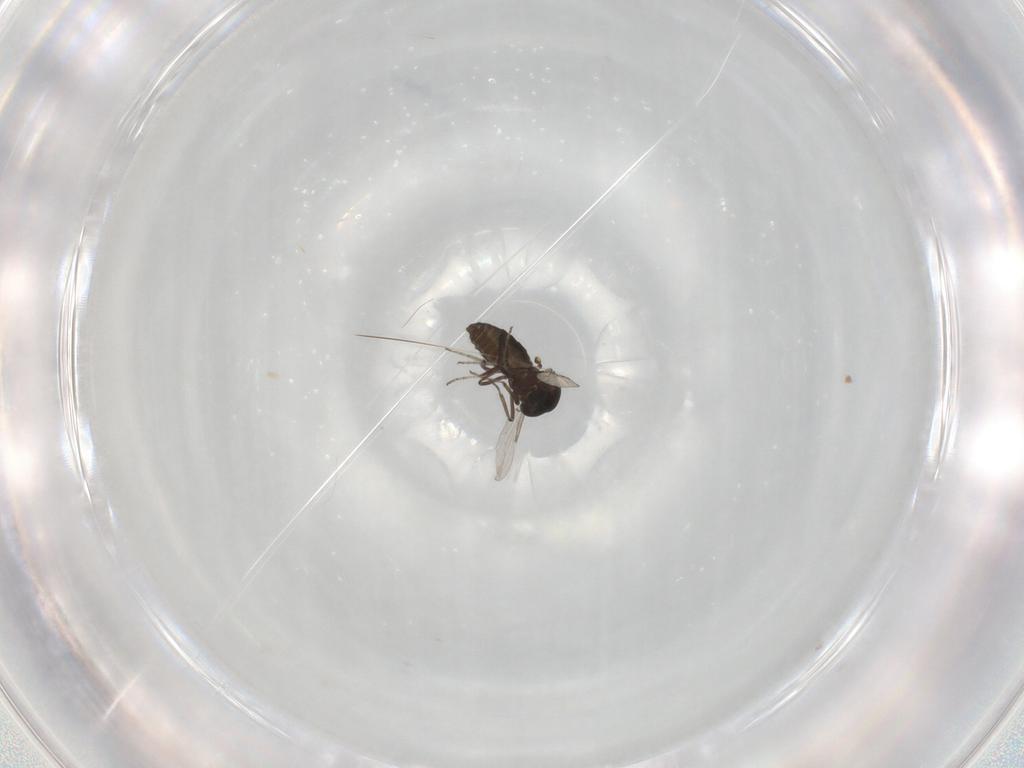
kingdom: Animalia
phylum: Arthropoda
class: Insecta
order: Diptera
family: Ceratopogonidae
